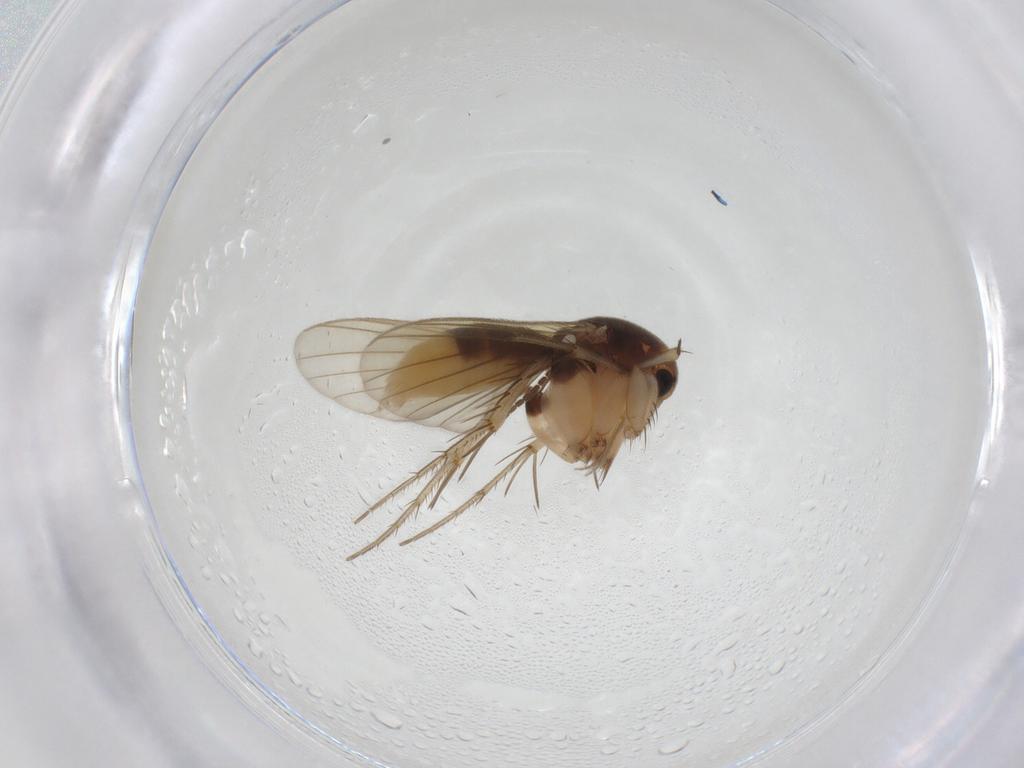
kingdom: Animalia
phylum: Arthropoda
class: Insecta
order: Diptera
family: Mycetophilidae
